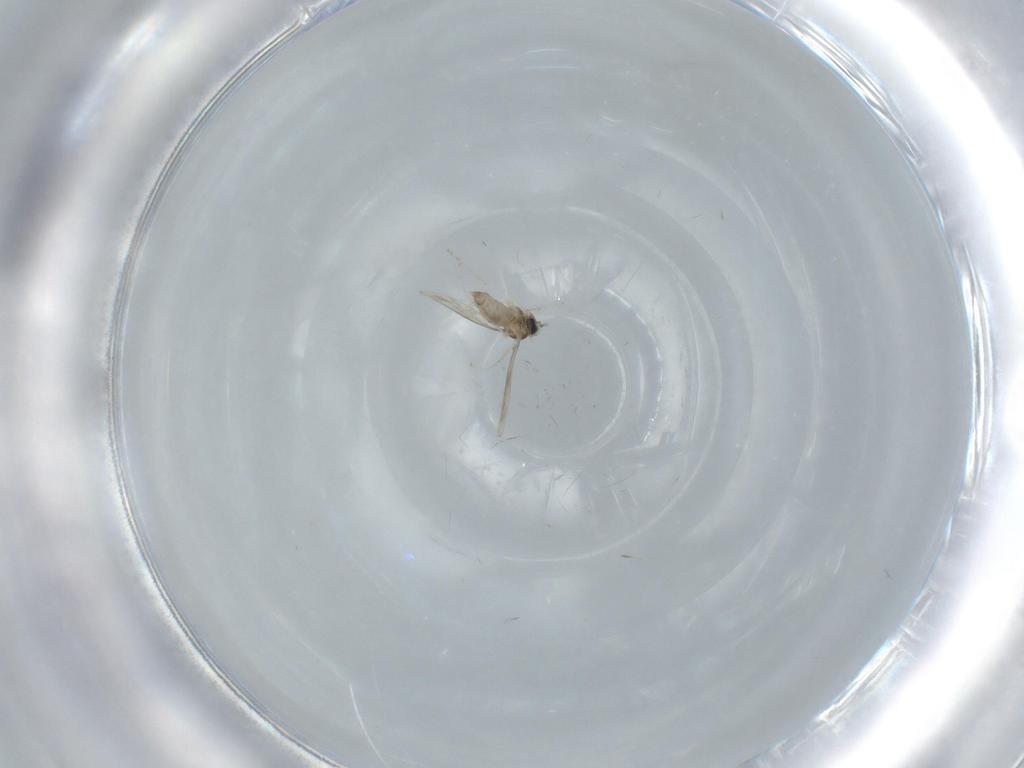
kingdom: Animalia
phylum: Arthropoda
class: Insecta
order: Diptera
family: Phoridae
